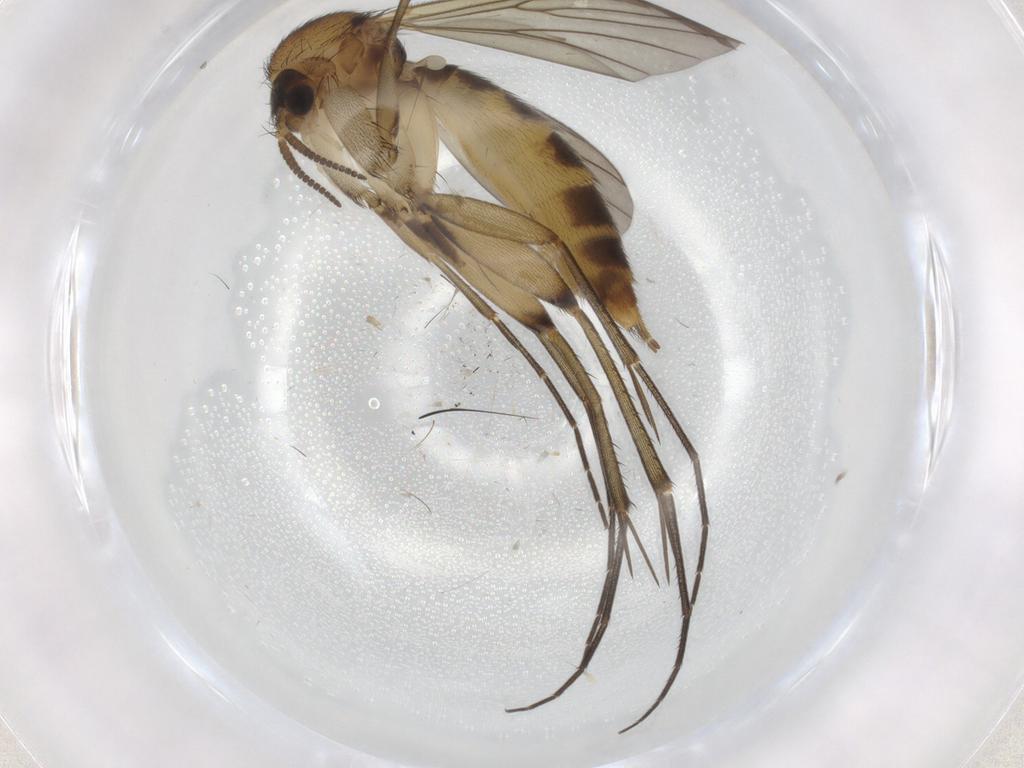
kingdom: Animalia
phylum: Arthropoda
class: Insecta
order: Diptera
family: Mycetophilidae
